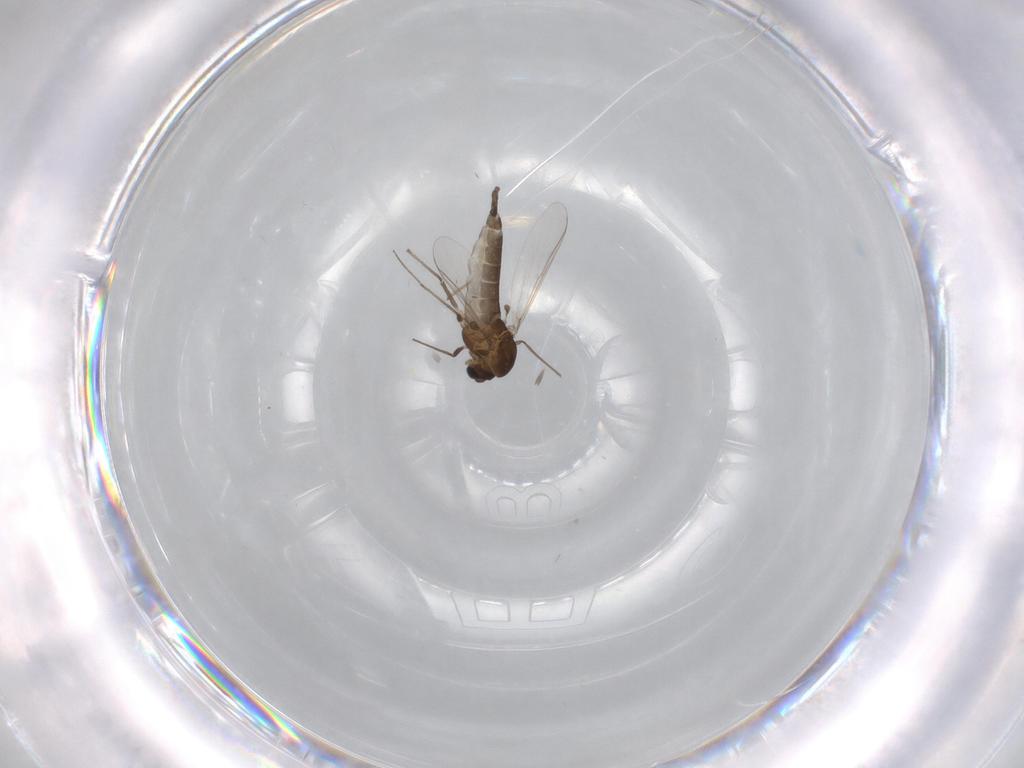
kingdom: Animalia
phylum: Arthropoda
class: Insecta
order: Diptera
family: Chironomidae
